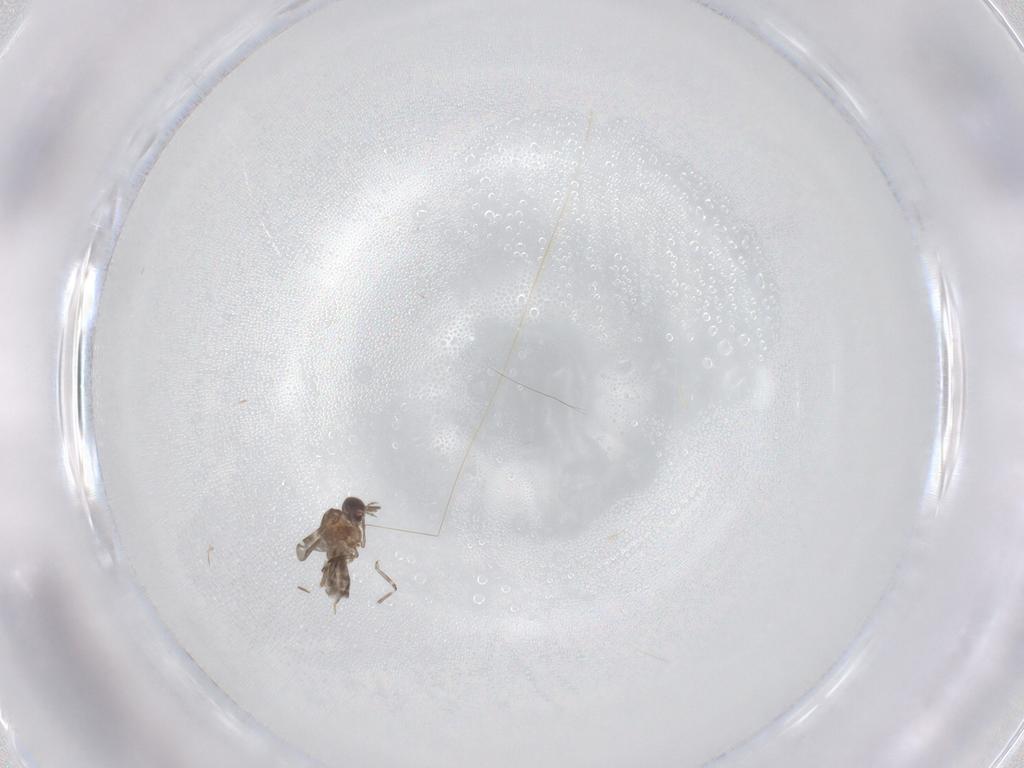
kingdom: Animalia
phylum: Arthropoda
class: Insecta
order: Diptera
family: Ceratopogonidae
